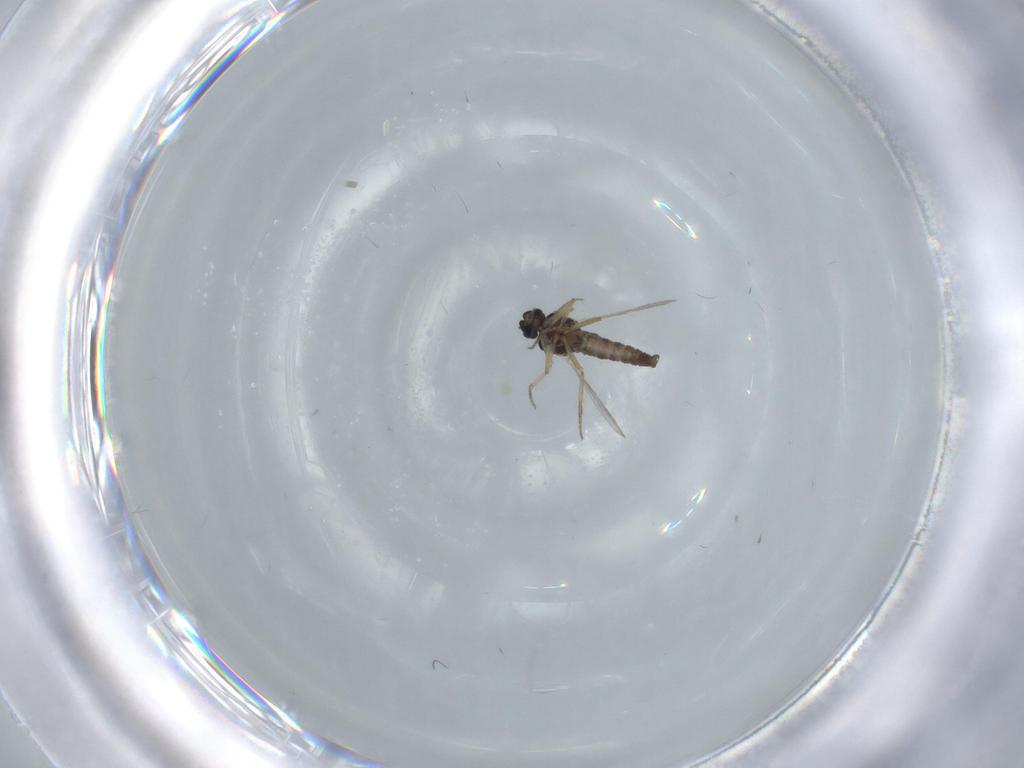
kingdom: Animalia
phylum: Arthropoda
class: Insecta
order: Diptera
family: Ceratopogonidae
